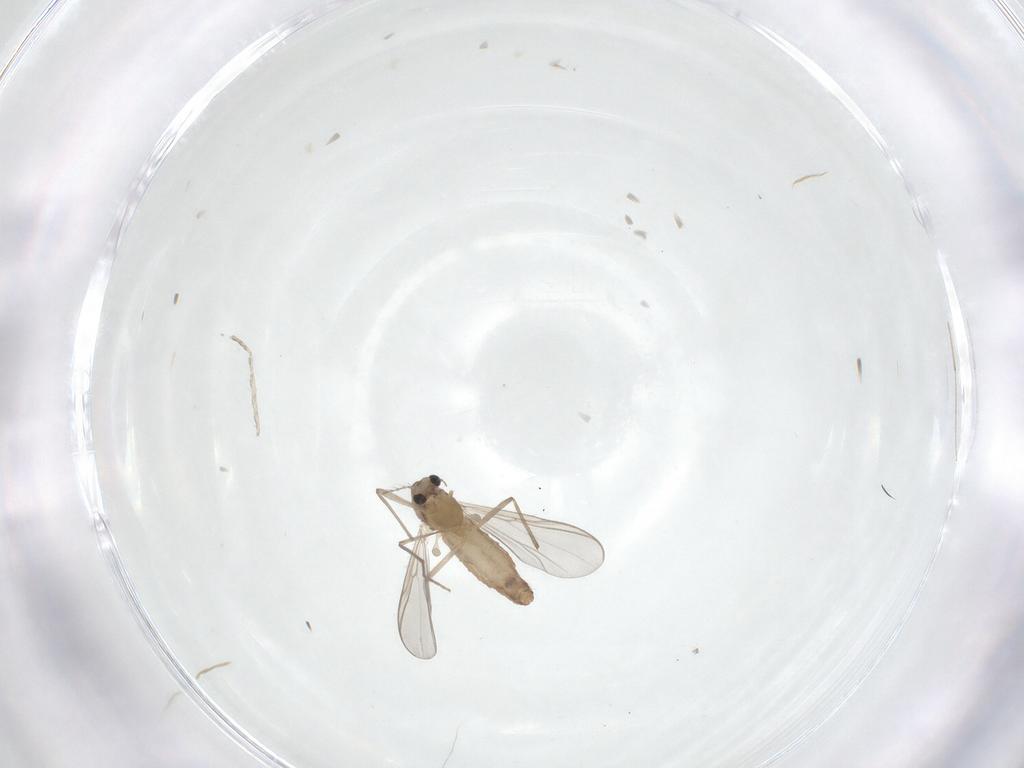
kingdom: Animalia
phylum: Arthropoda
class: Insecta
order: Diptera
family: Chironomidae
